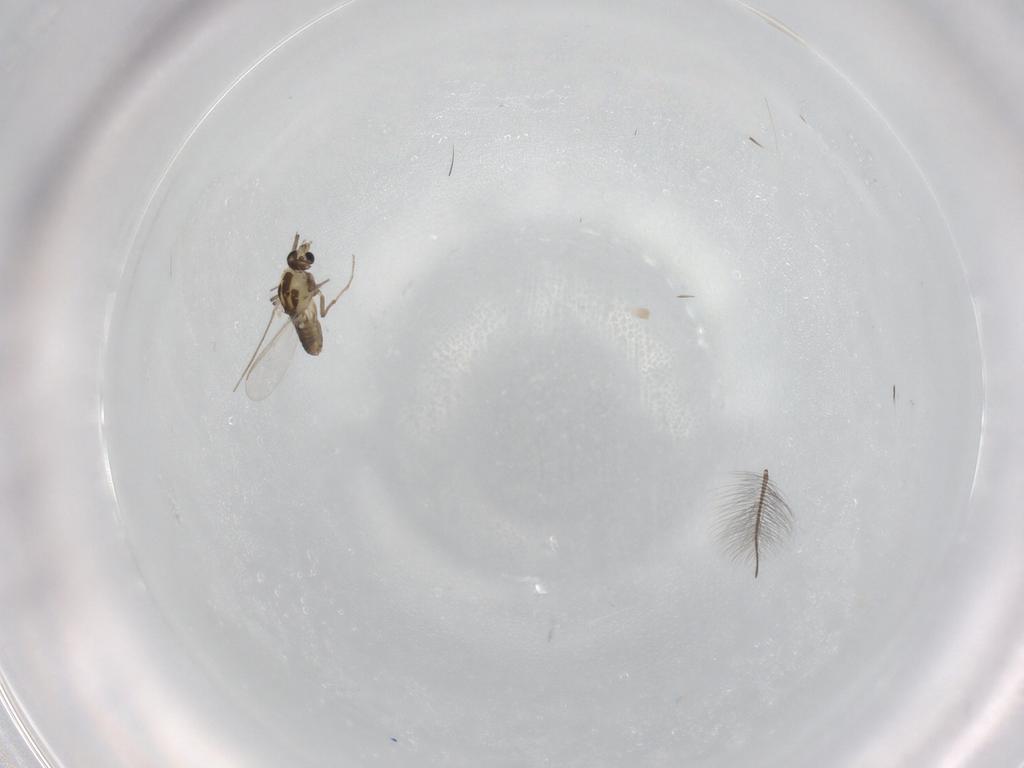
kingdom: Animalia
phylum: Arthropoda
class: Insecta
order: Diptera
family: Chironomidae
